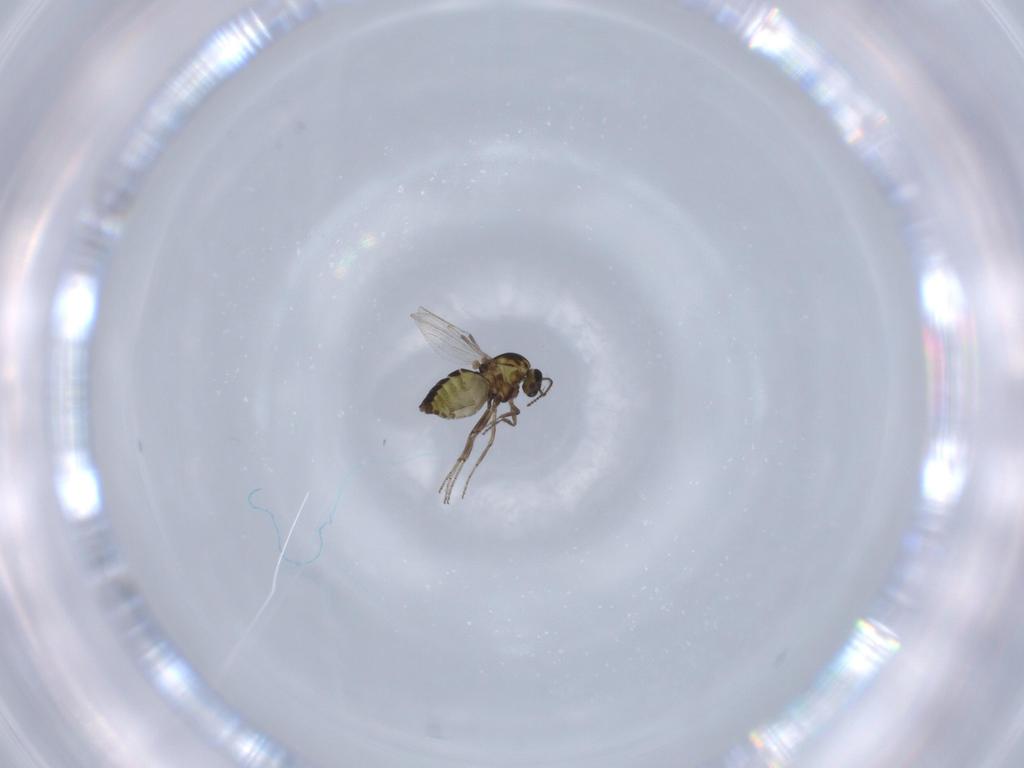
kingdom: Animalia
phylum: Arthropoda
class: Insecta
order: Diptera
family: Ceratopogonidae
